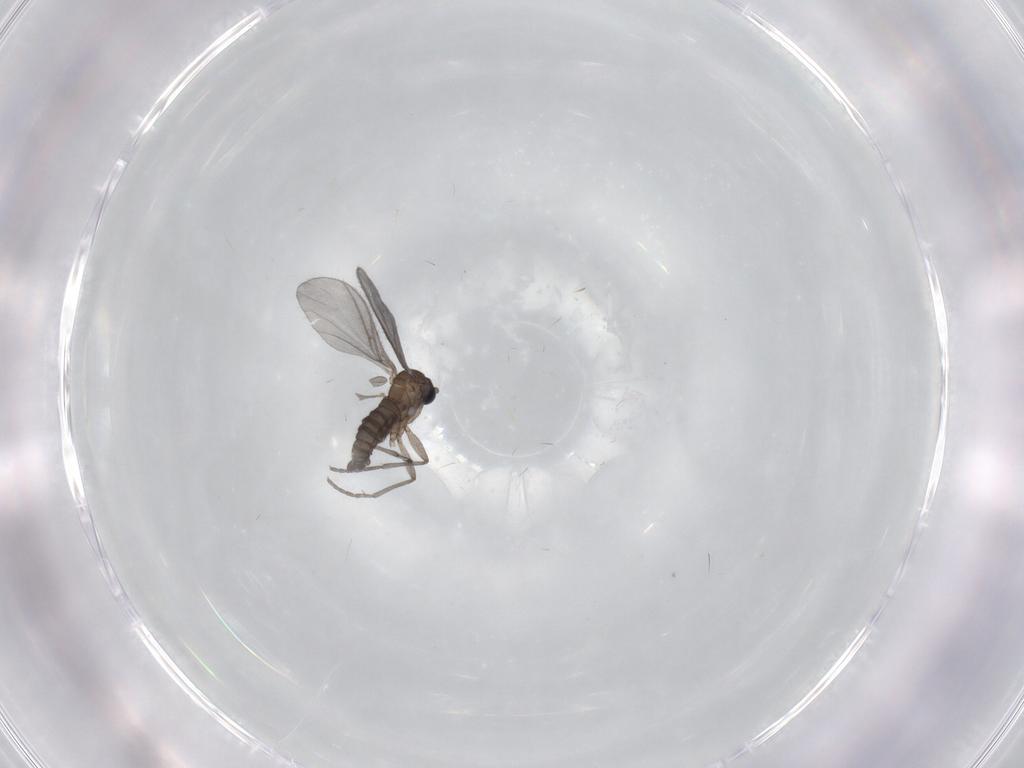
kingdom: Animalia
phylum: Arthropoda
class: Insecta
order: Diptera
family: Sciaridae
